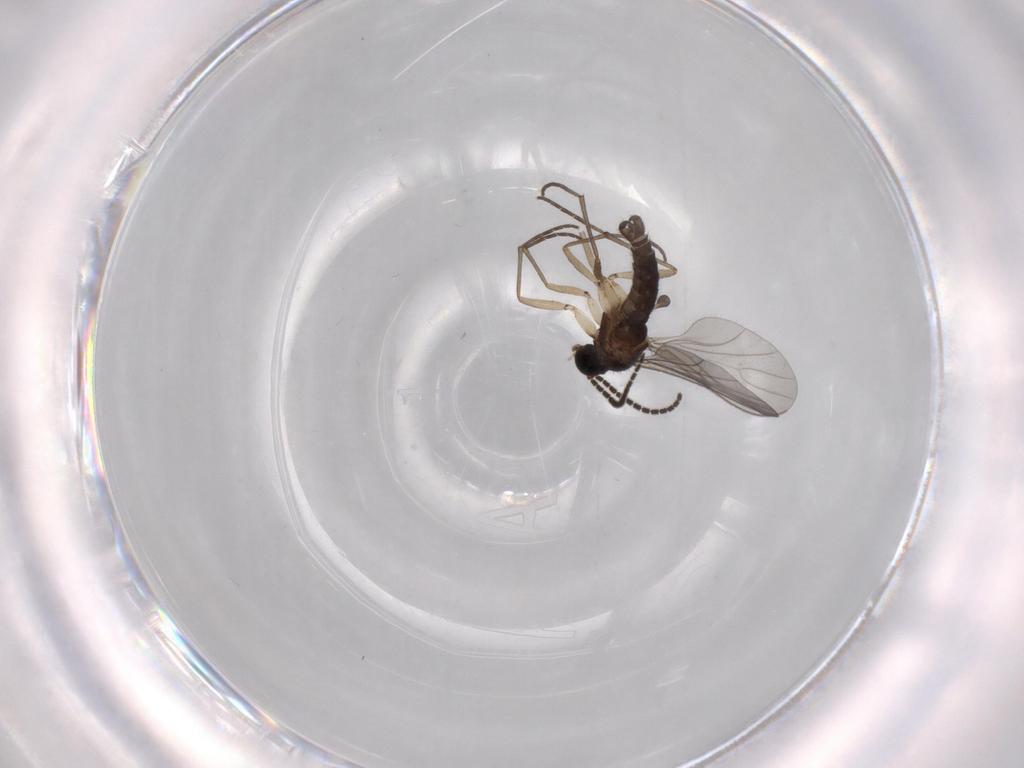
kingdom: Animalia
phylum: Arthropoda
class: Insecta
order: Diptera
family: Sciaridae
